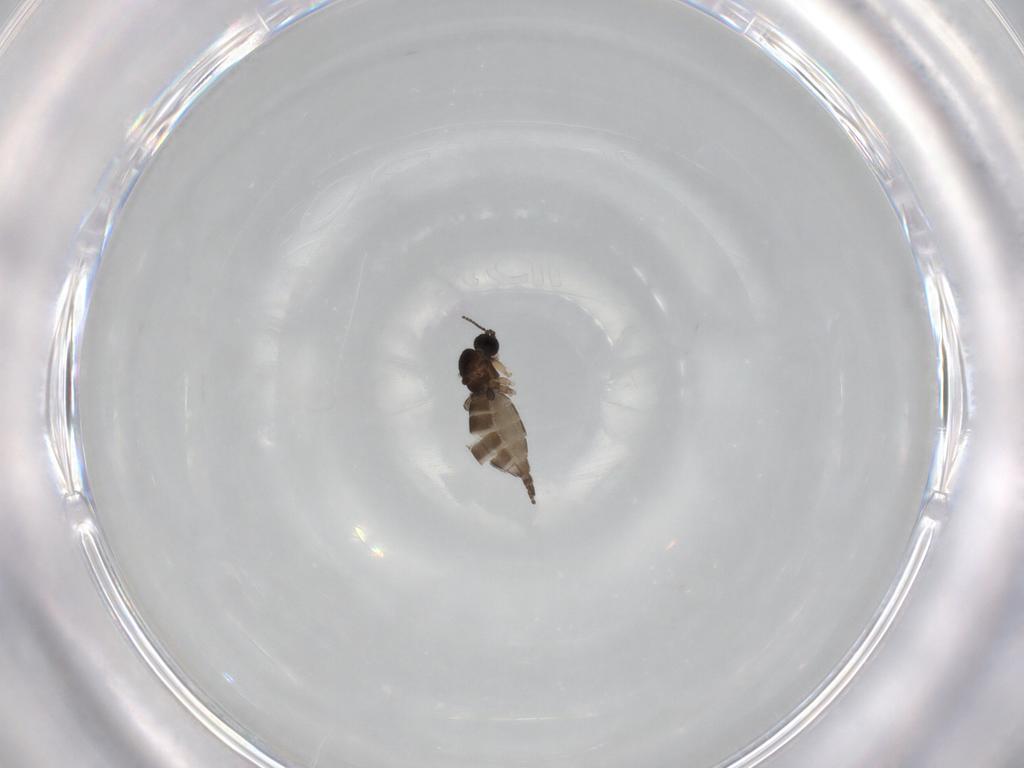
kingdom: Animalia
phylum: Arthropoda
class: Insecta
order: Diptera
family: Sciaridae
